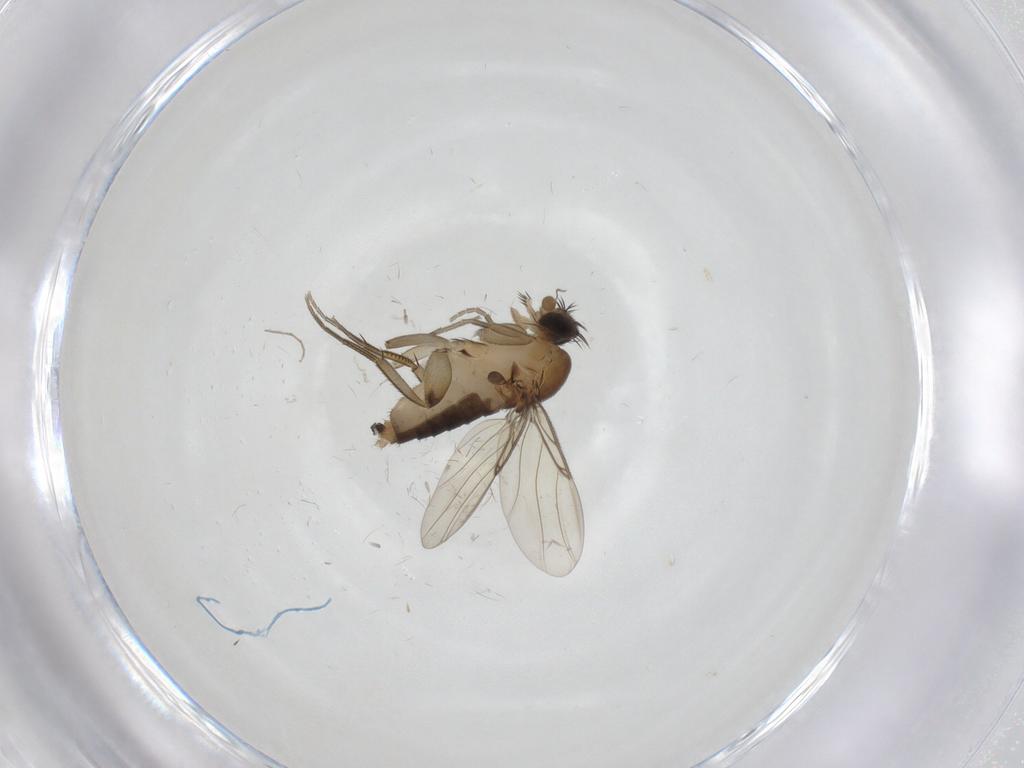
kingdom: Animalia
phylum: Arthropoda
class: Insecta
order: Diptera
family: Phoridae
